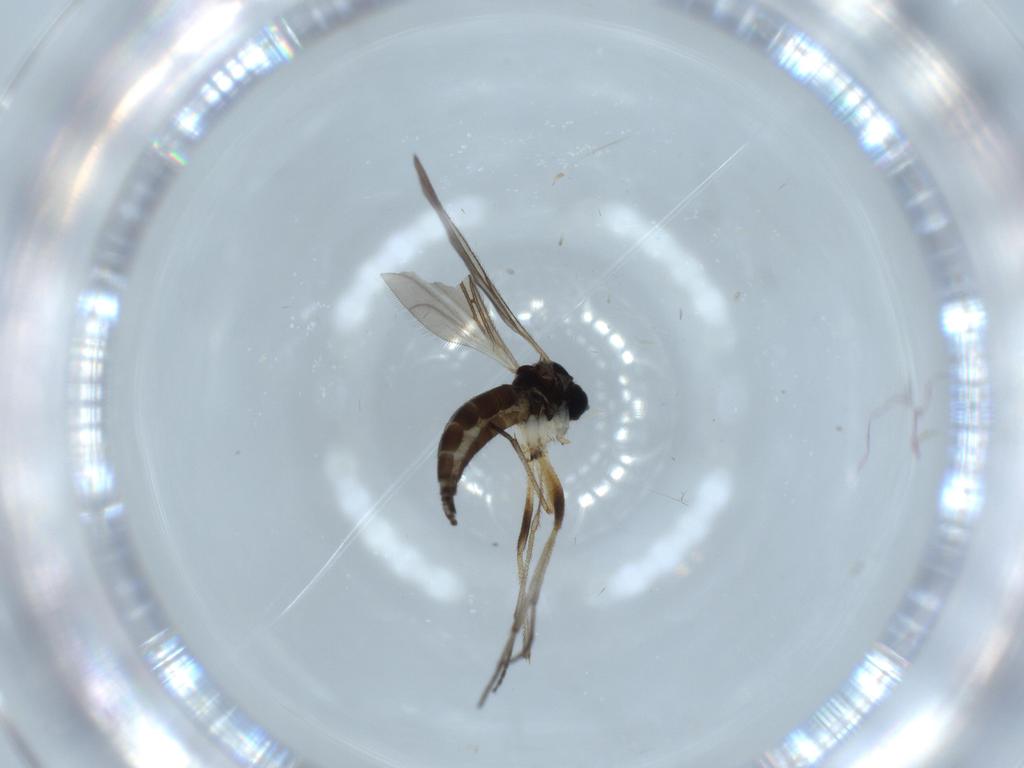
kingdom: Animalia
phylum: Arthropoda
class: Insecta
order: Diptera
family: Sciaridae
